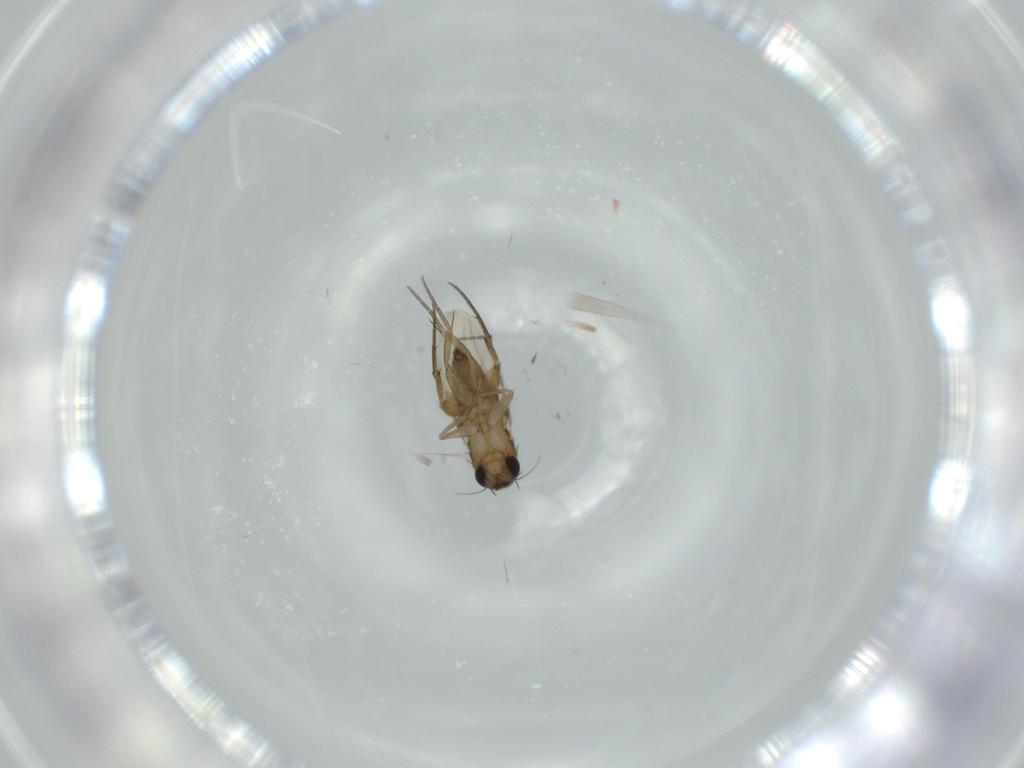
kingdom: Animalia
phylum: Arthropoda
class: Insecta
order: Diptera
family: Phoridae
